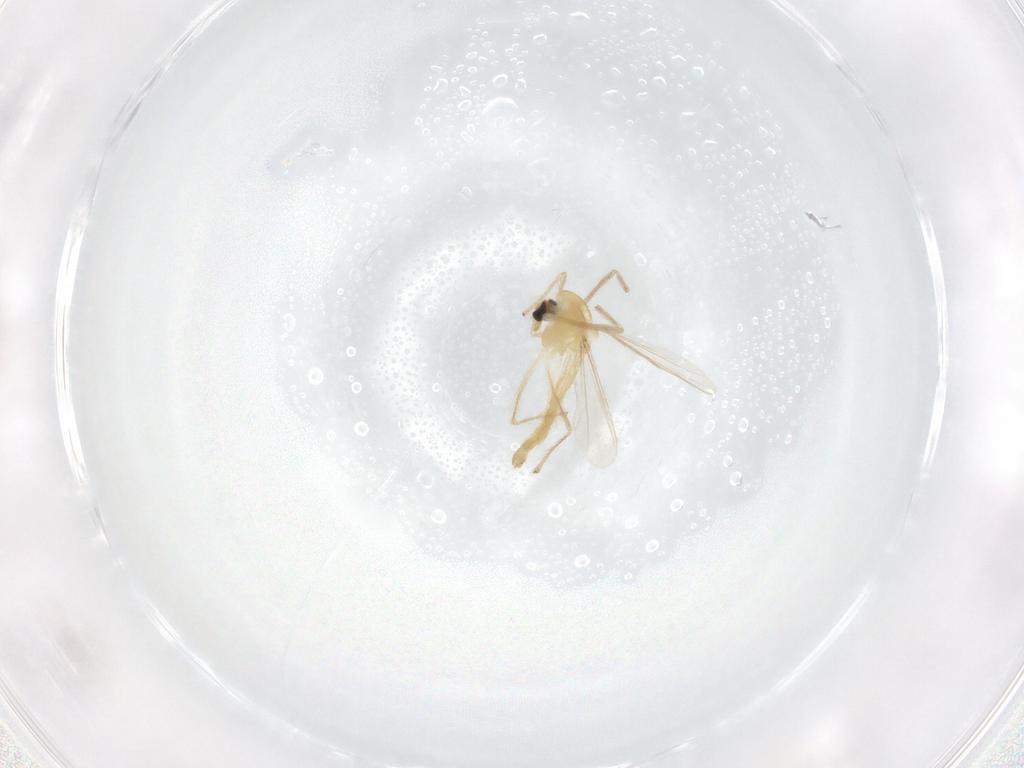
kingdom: Animalia
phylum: Arthropoda
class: Insecta
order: Diptera
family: Chironomidae
